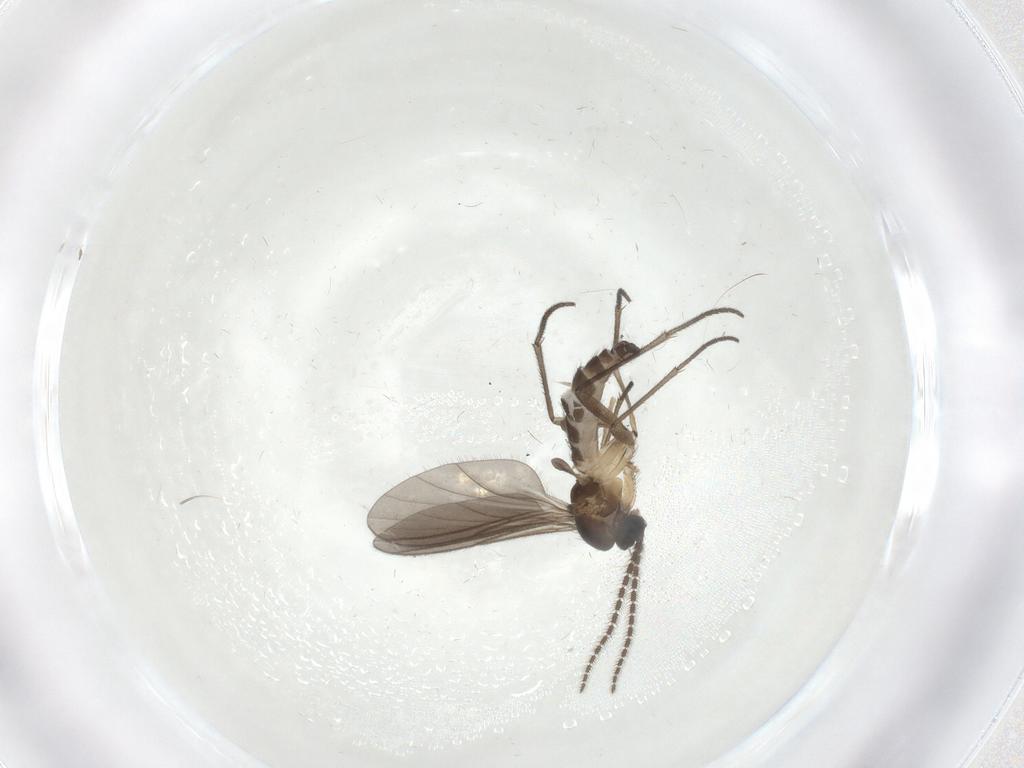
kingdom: Animalia
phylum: Arthropoda
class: Insecta
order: Diptera
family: Sciaridae
